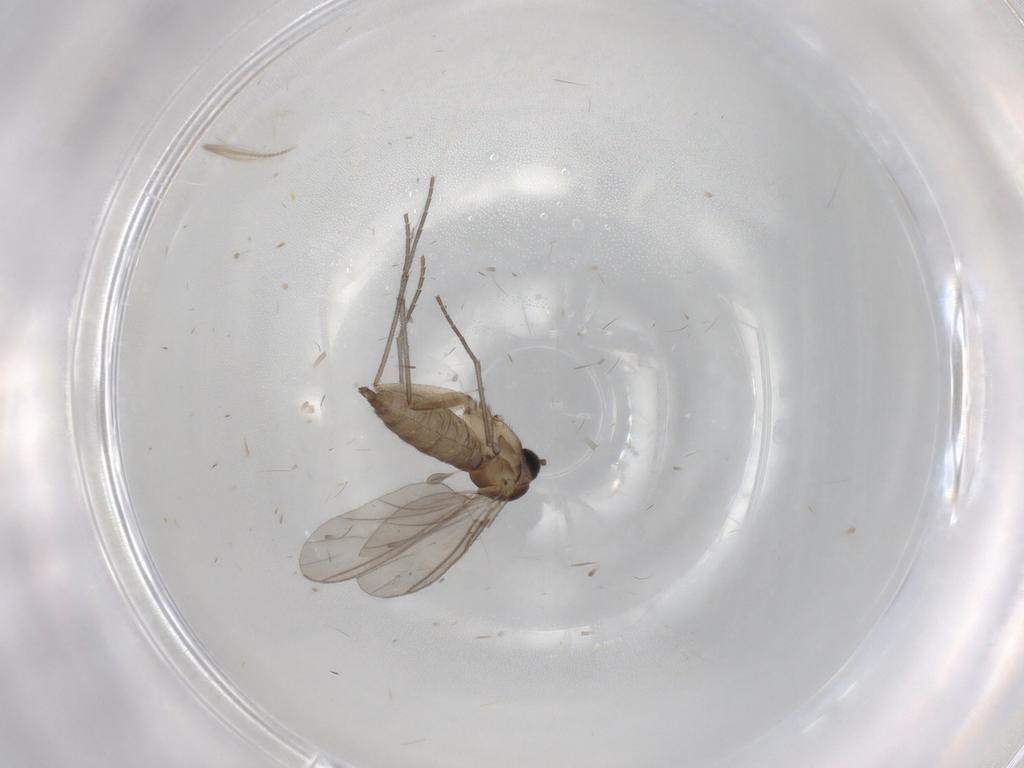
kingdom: Animalia
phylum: Arthropoda
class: Insecta
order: Diptera
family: Sciaridae
